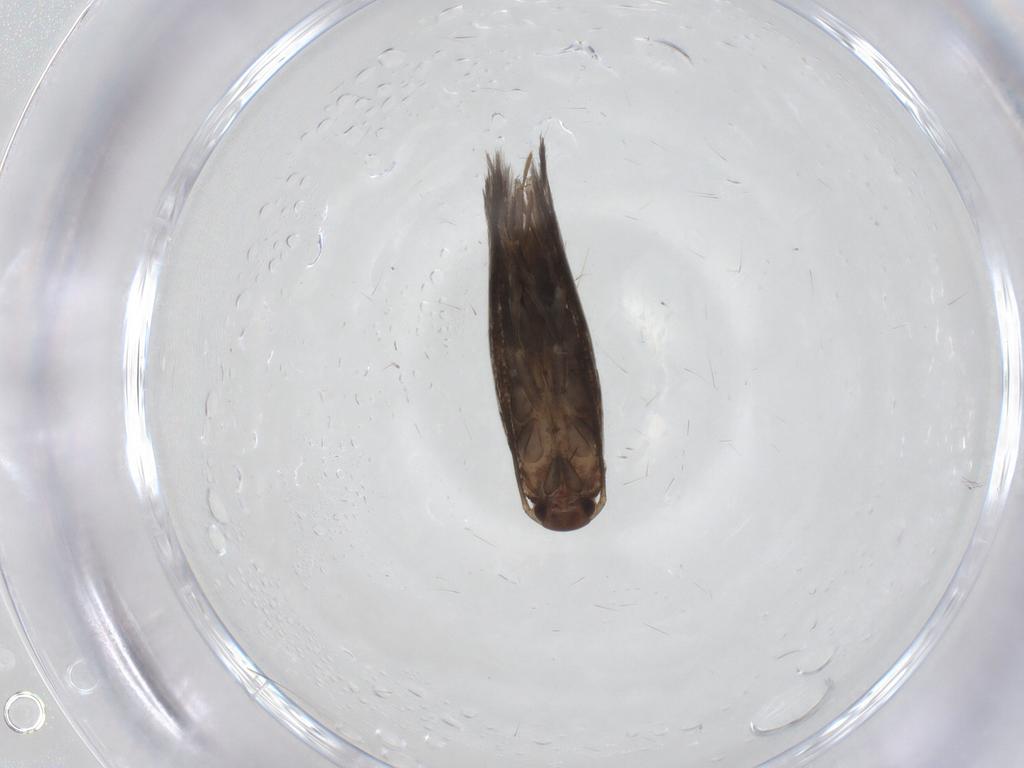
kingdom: Animalia
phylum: Arthropoda
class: Insecta
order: Lepidoptera
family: Elachistidae
